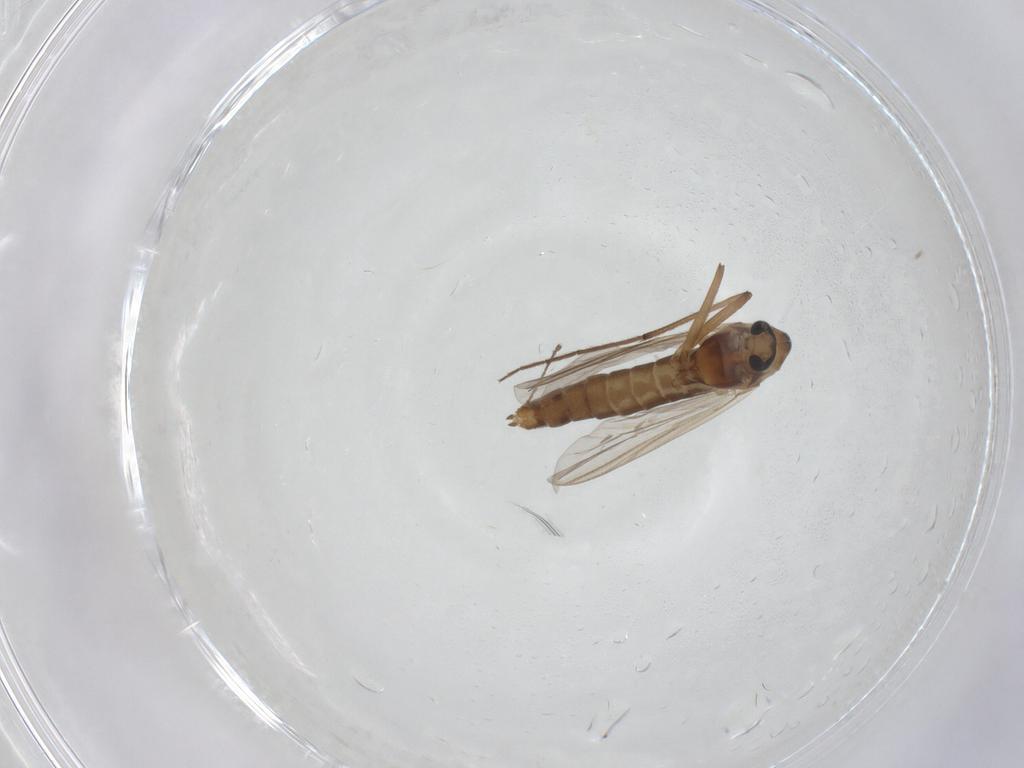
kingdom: Animalia
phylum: Arthropoda
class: Insecta
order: Diptera
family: Chironomidae
